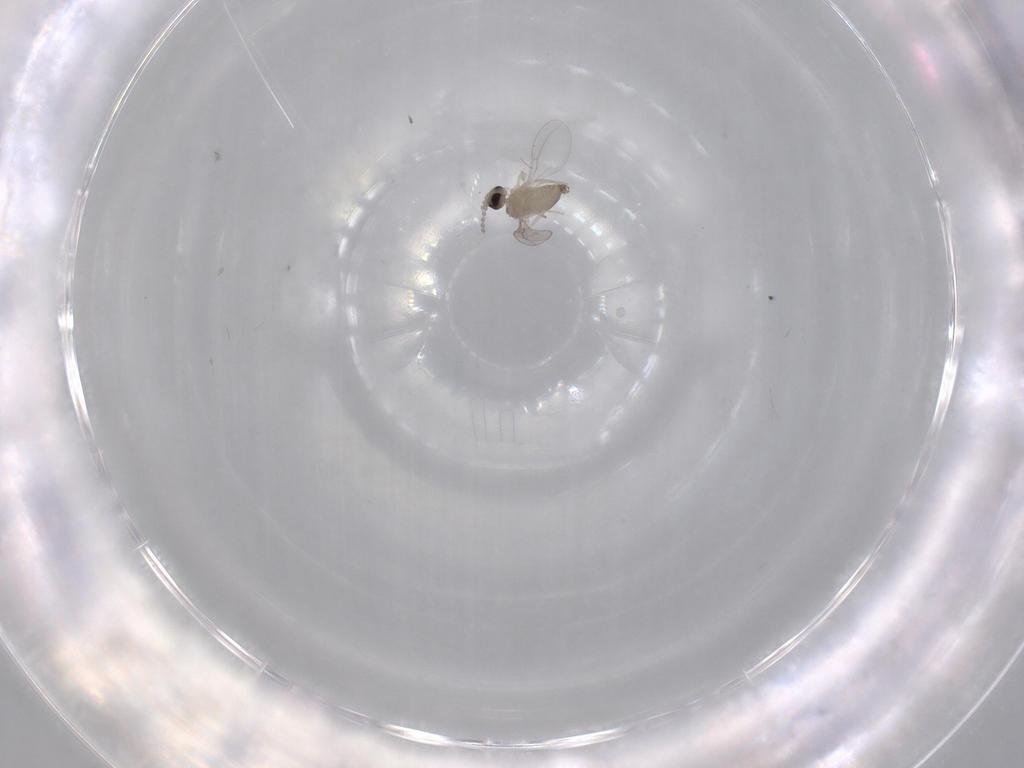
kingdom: Animalia
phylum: Arthropoda
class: Insecta
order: Diptera
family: Cecidomyiidae
